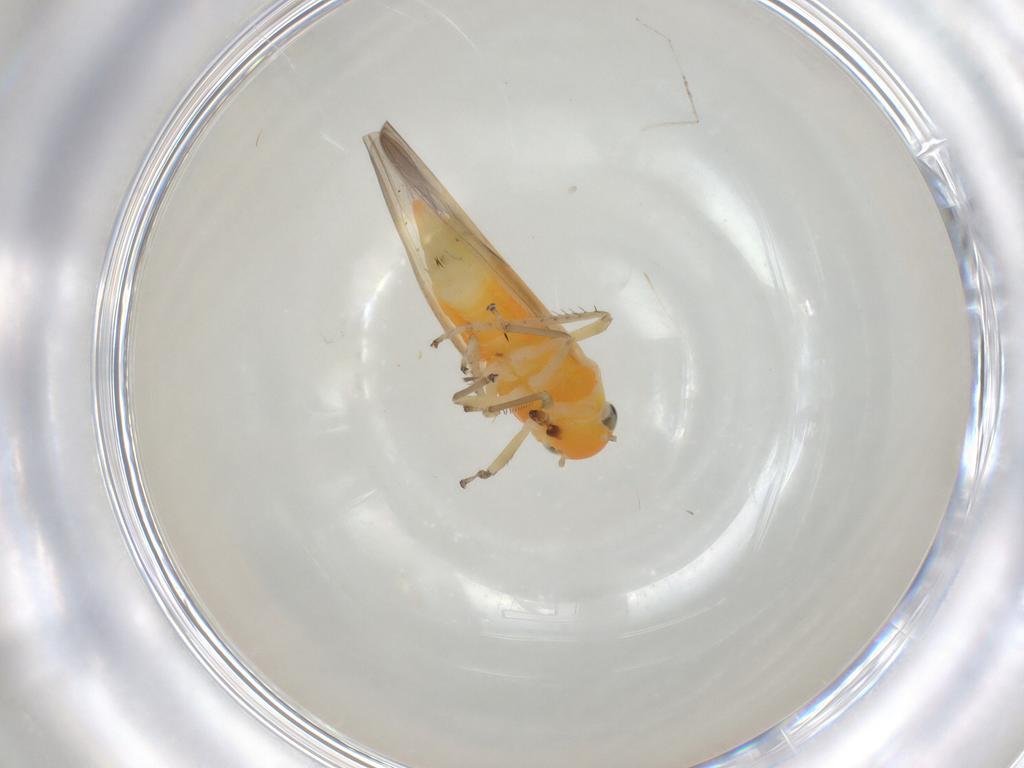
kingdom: Animalia
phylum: Arthropoda
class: Insecta
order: Hemiptera
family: Cicadellidae
